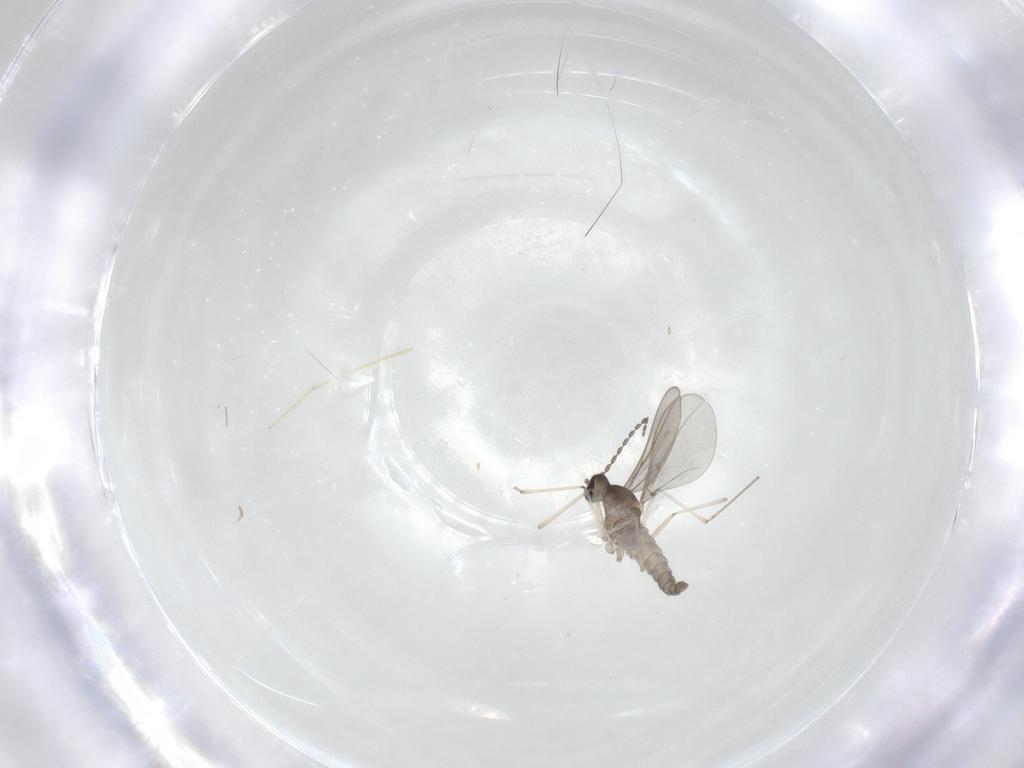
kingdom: Animalia
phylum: Arthropoda
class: Insecta
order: Diptera
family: Cecidomyiidae
